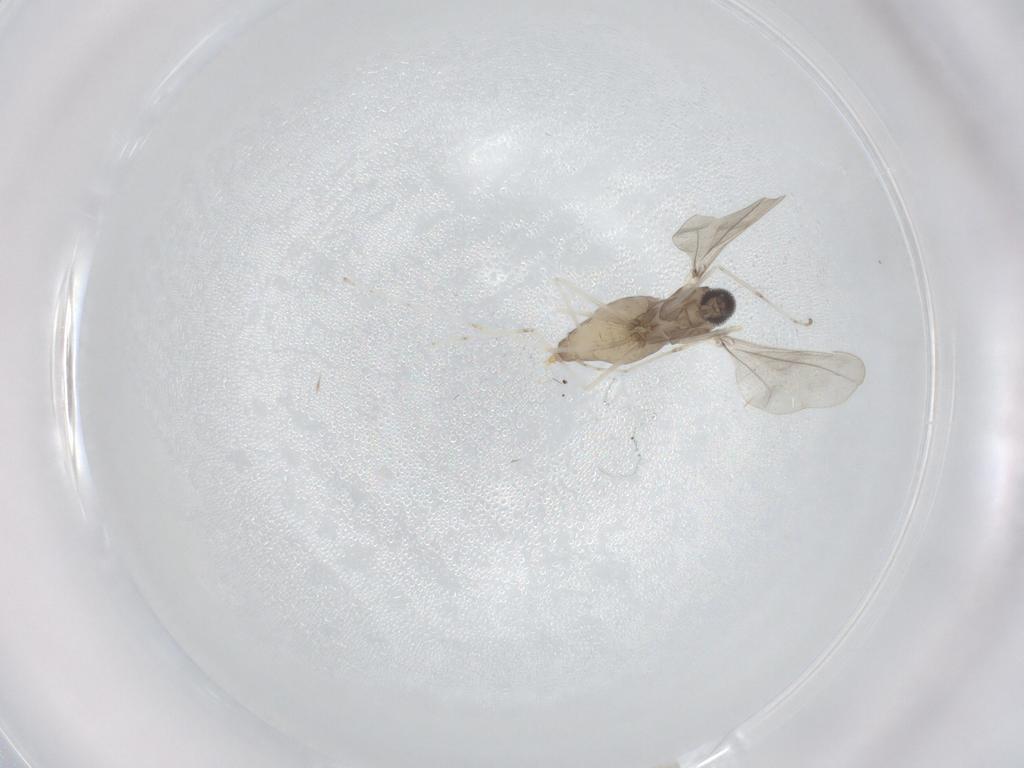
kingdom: Animalia
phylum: Arthropoda
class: Insecta
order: Diptera
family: Cecidomyiidae
